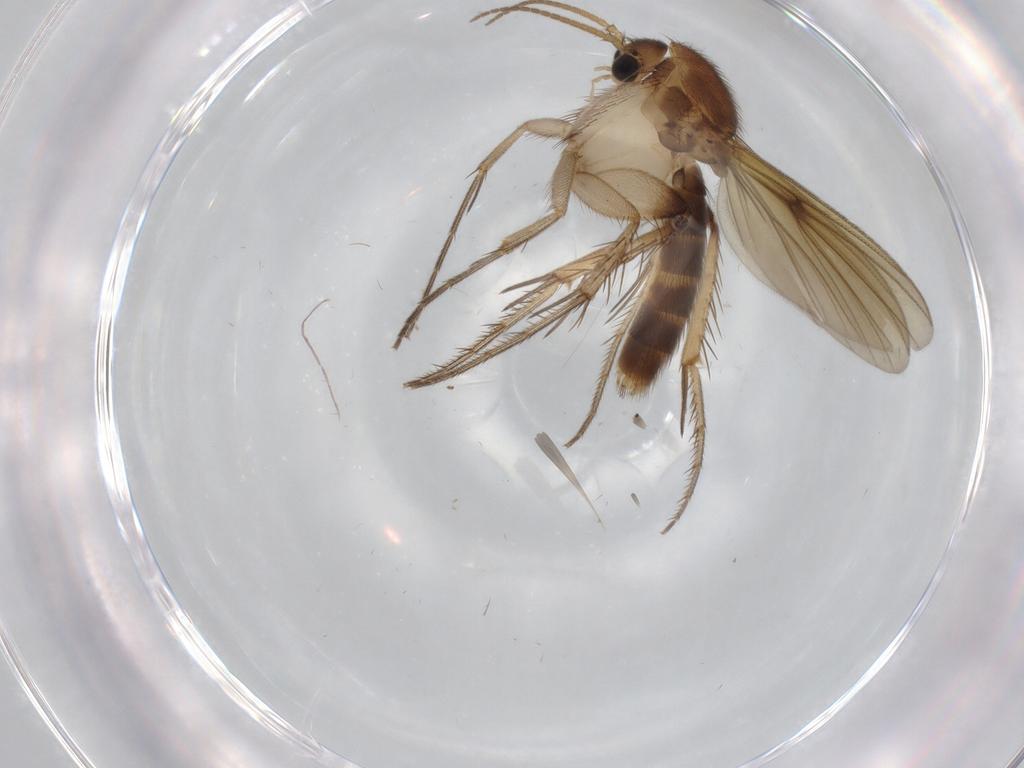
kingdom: Animalia
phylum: Arthropoda
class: Insecta
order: Diptera
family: Mycetophilidae
